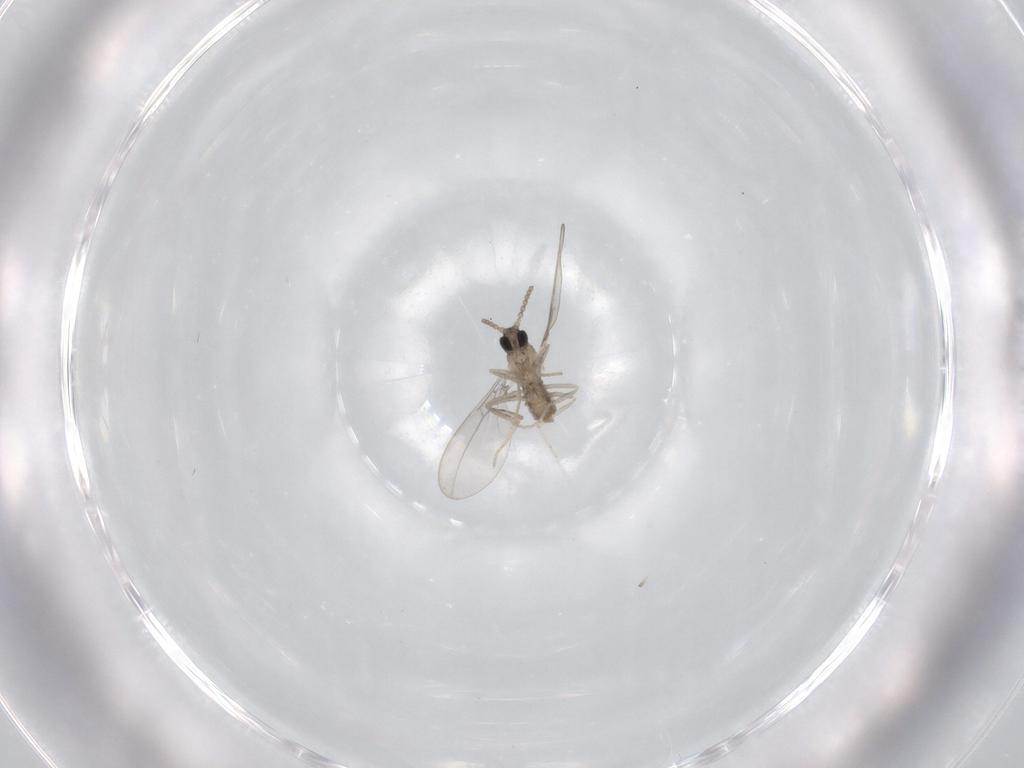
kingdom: Animalia
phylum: Arthropoda
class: Insecta
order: Diptera
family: Cecidomyiidae
